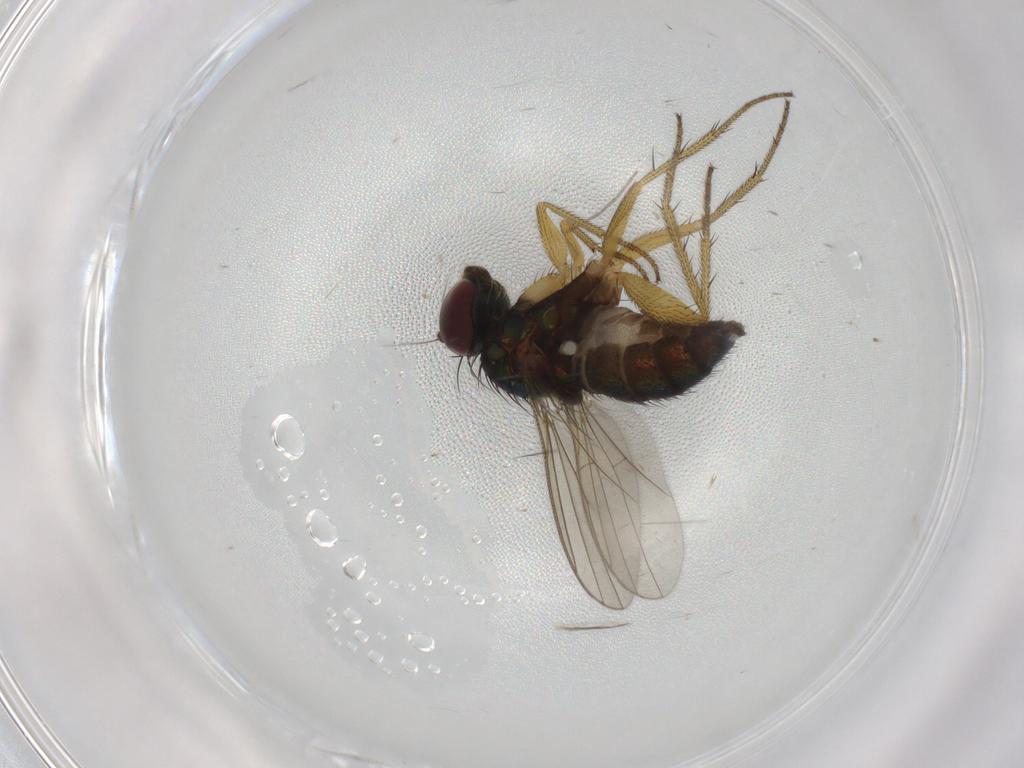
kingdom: Animalia
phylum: Arthropoda
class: Insecta
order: Diptera
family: Dolichopodidae
